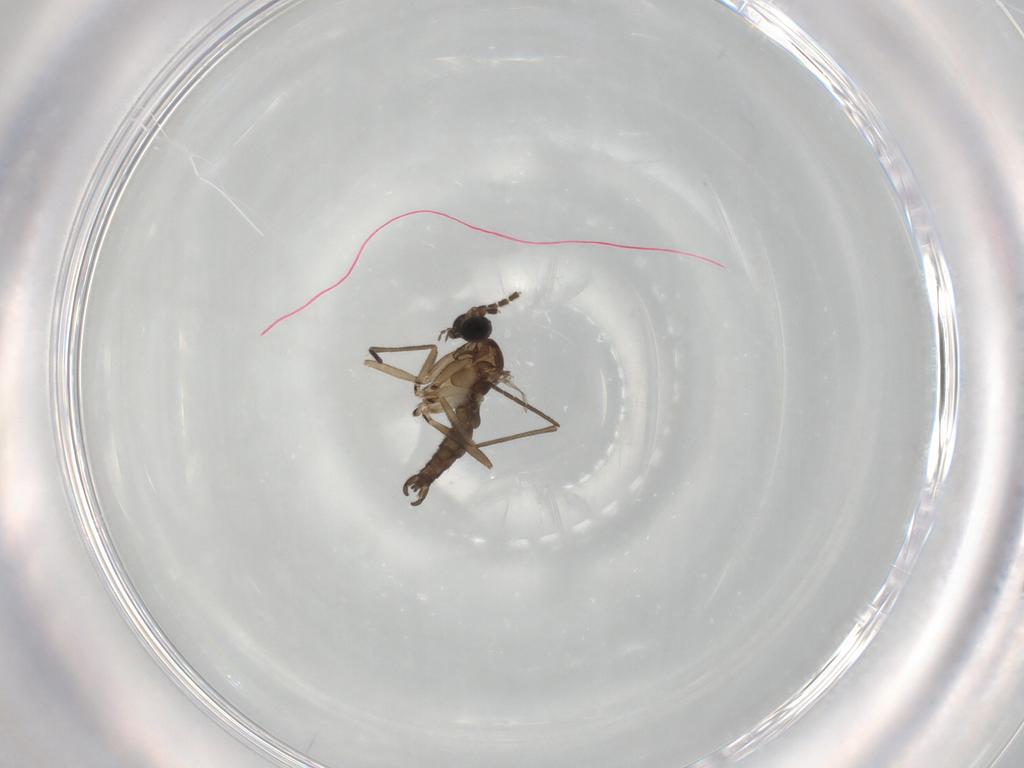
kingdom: Animalia
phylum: Arthropoda
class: Insecta
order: Diptera
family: Sciaridae
